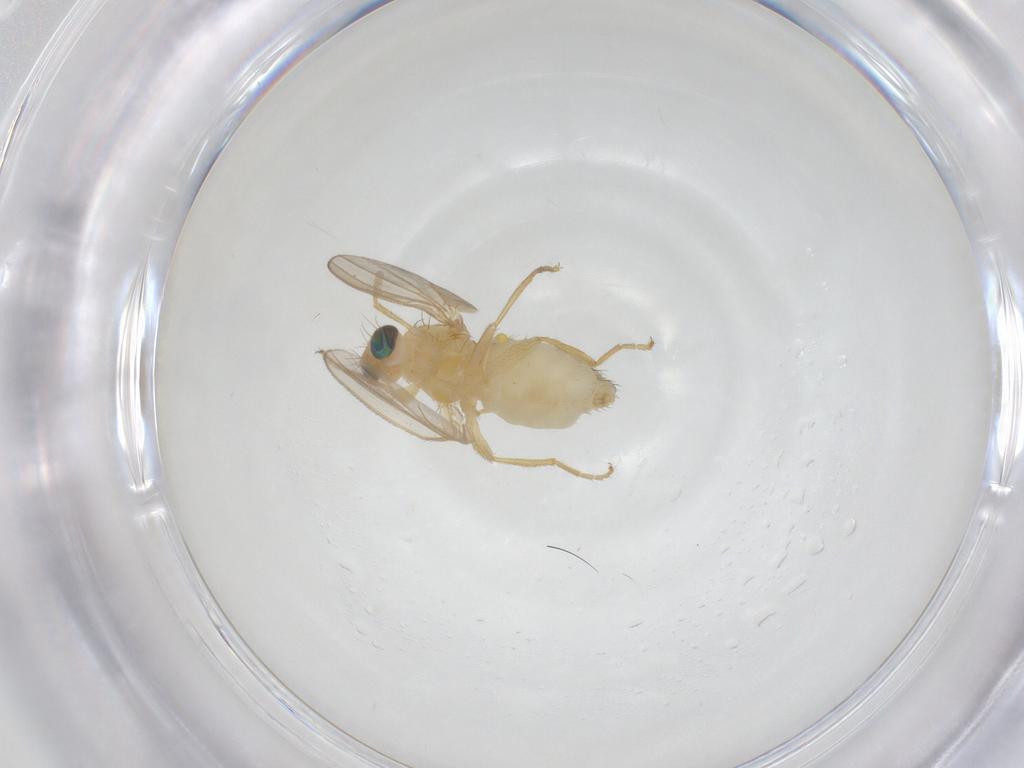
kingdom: Animalia
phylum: Arthropoda
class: Insecta
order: Diptera
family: Chyromyidae
